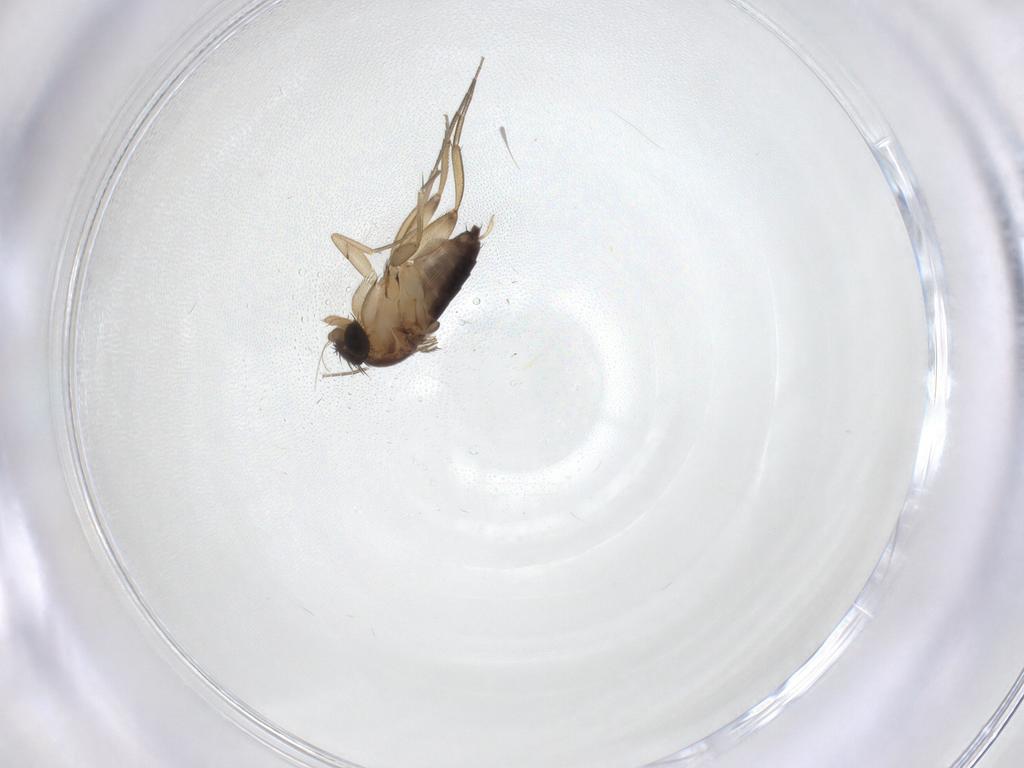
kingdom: Animalia
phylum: Arthropoda
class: Insecta
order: Diptera
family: Phoridae
